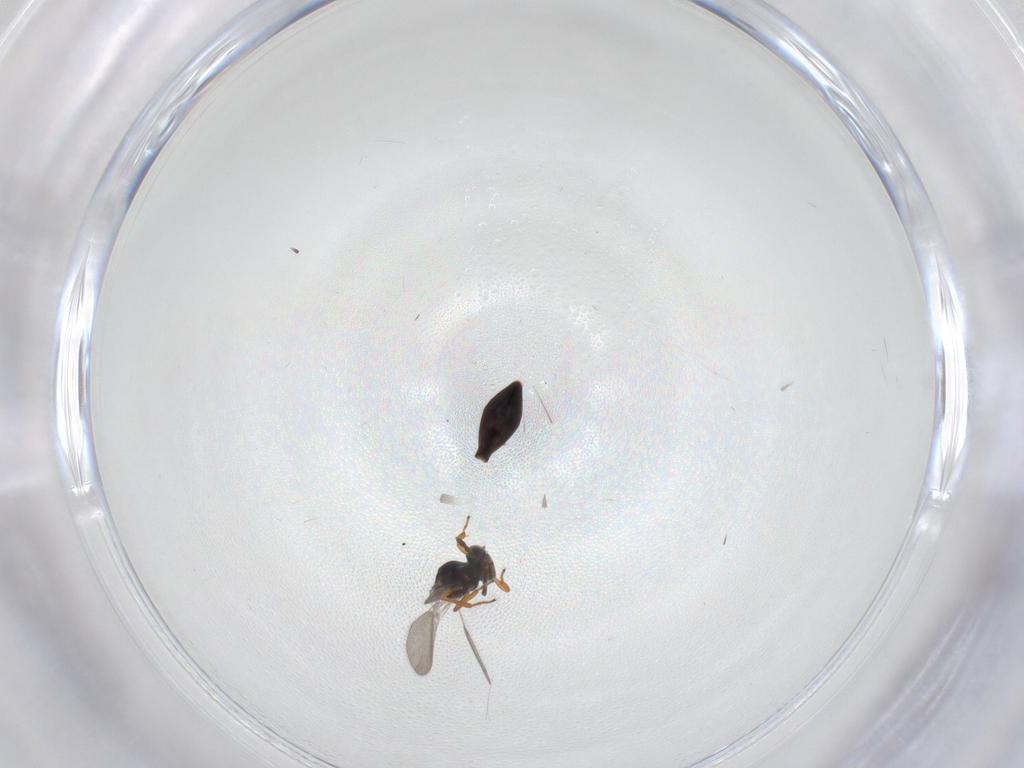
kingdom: Animalia
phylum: Arthropoda
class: Insecta
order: Hymenoptera
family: Platygastridae
